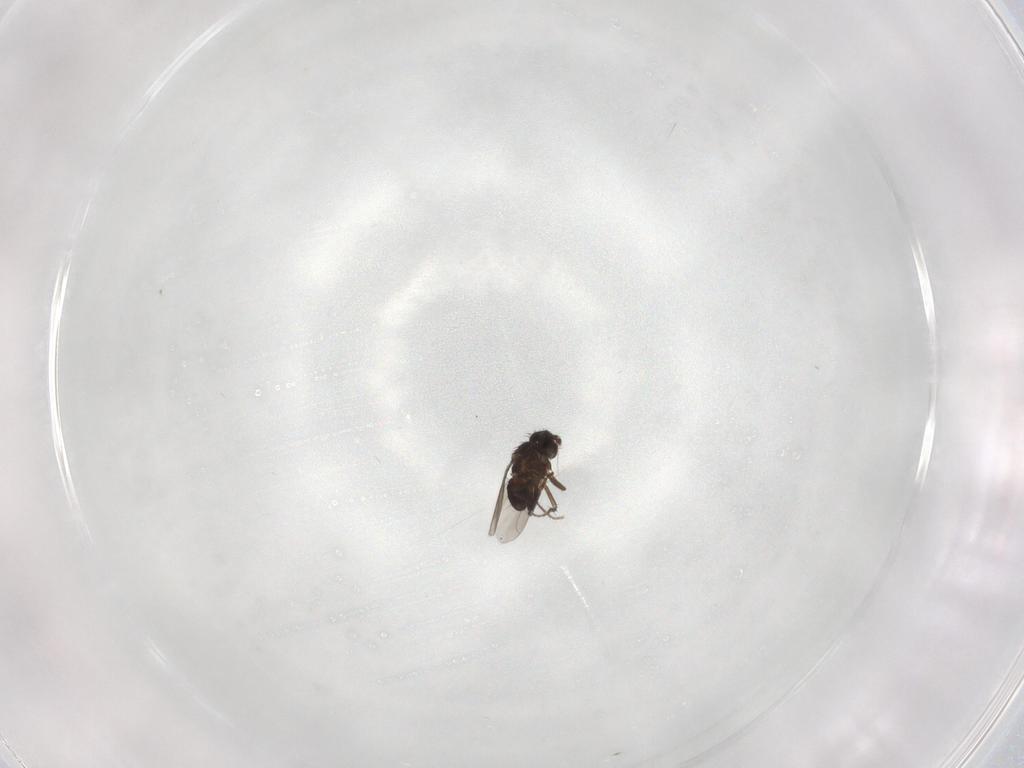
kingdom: Animalia
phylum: Arthropoda
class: Insecta
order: Diptera
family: Sphaeroceridae
